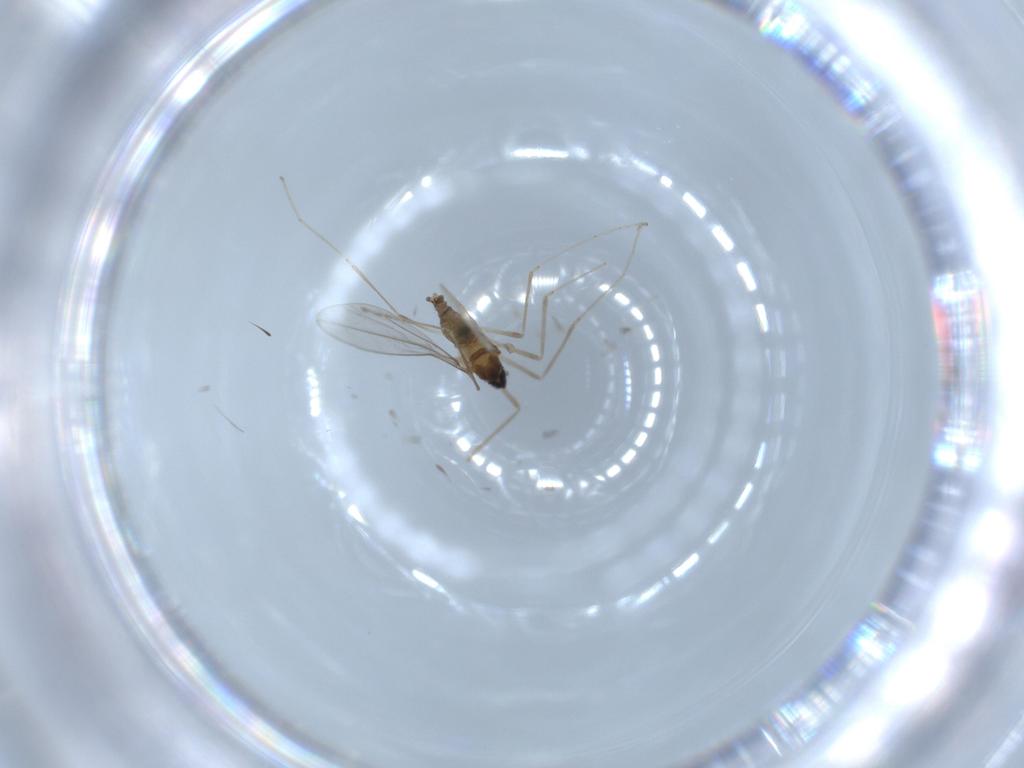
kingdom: Animalia
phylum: Arthropoda
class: Insecta
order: Diptera
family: Cecidomyiidae
